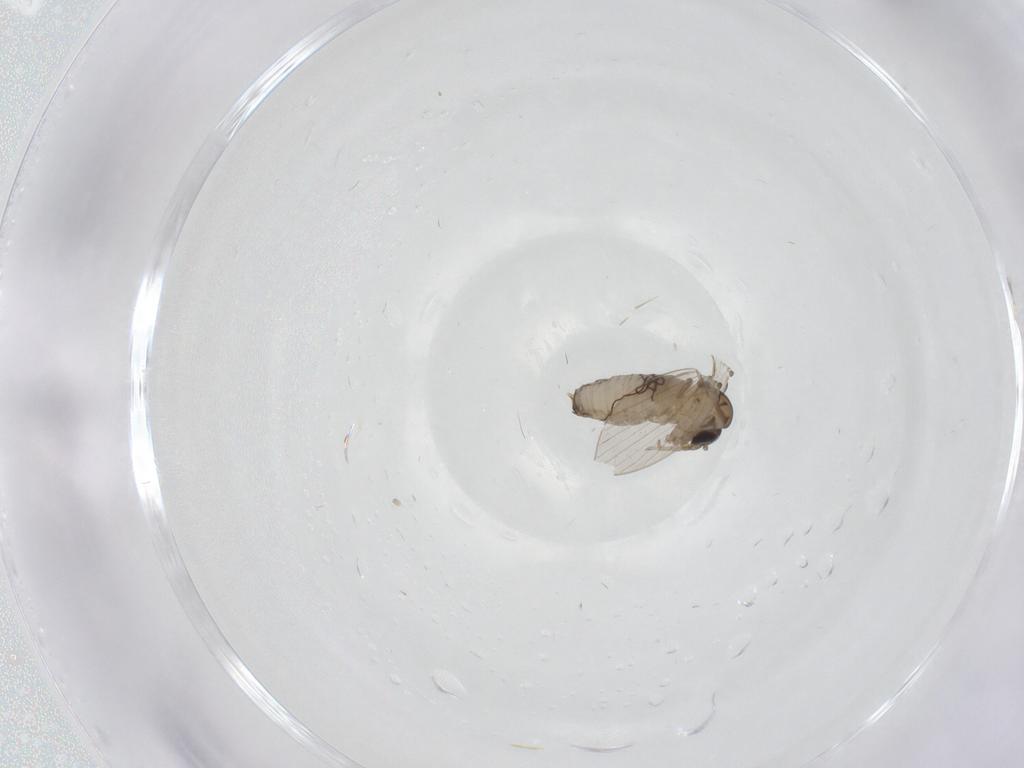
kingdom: Animalia
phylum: Arthropoda
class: Insecta
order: Diptera
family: Psychodidae
